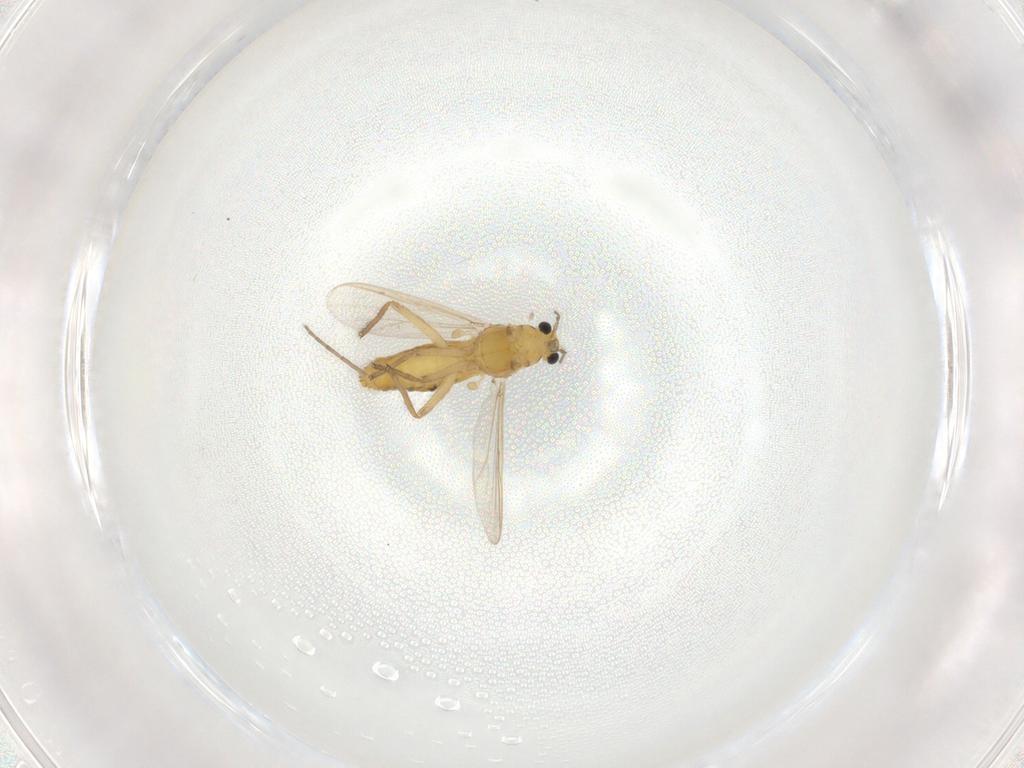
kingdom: Animalia
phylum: Arthropoda
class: Insecta
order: Diptera
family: Chironomidae
